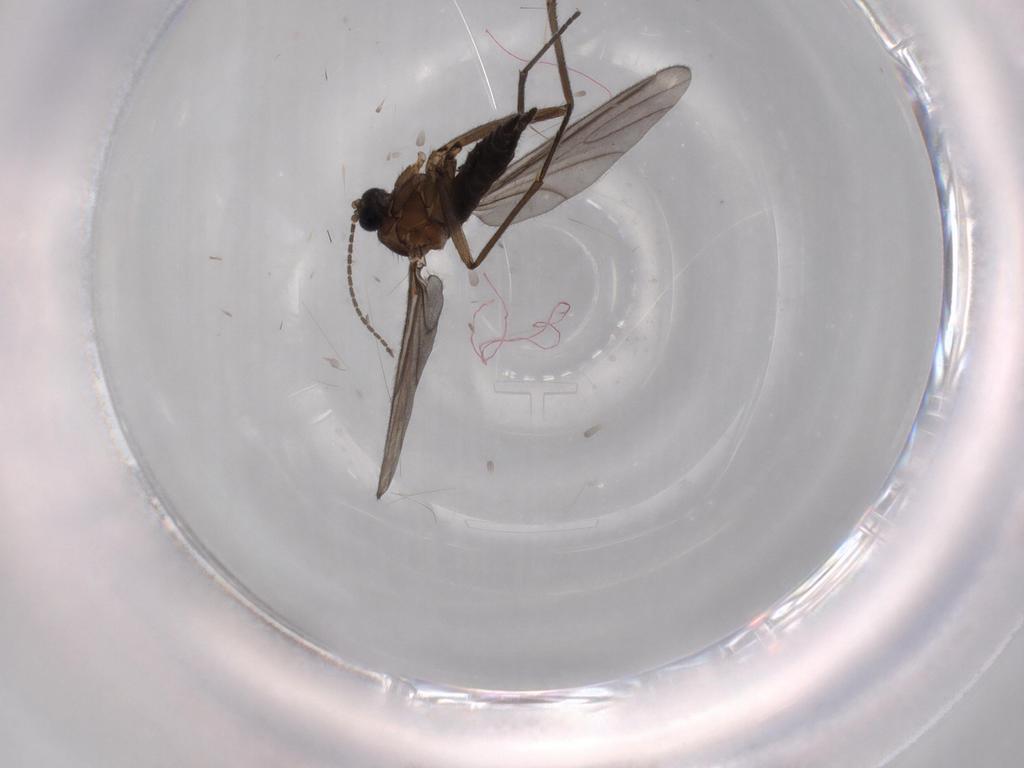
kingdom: Animalia
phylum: Arthropoda
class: Insecta
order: Diptera
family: Sciaridae
